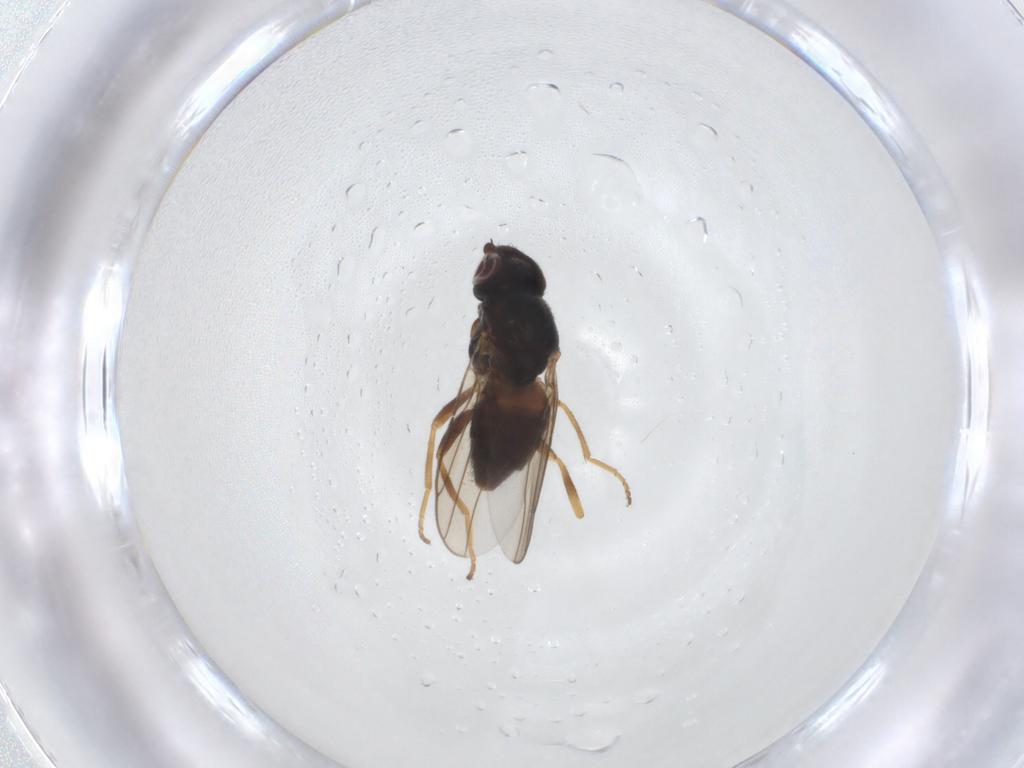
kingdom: Animalia
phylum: Arthropoda
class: Insecta
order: Diptera
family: Chloropidae
